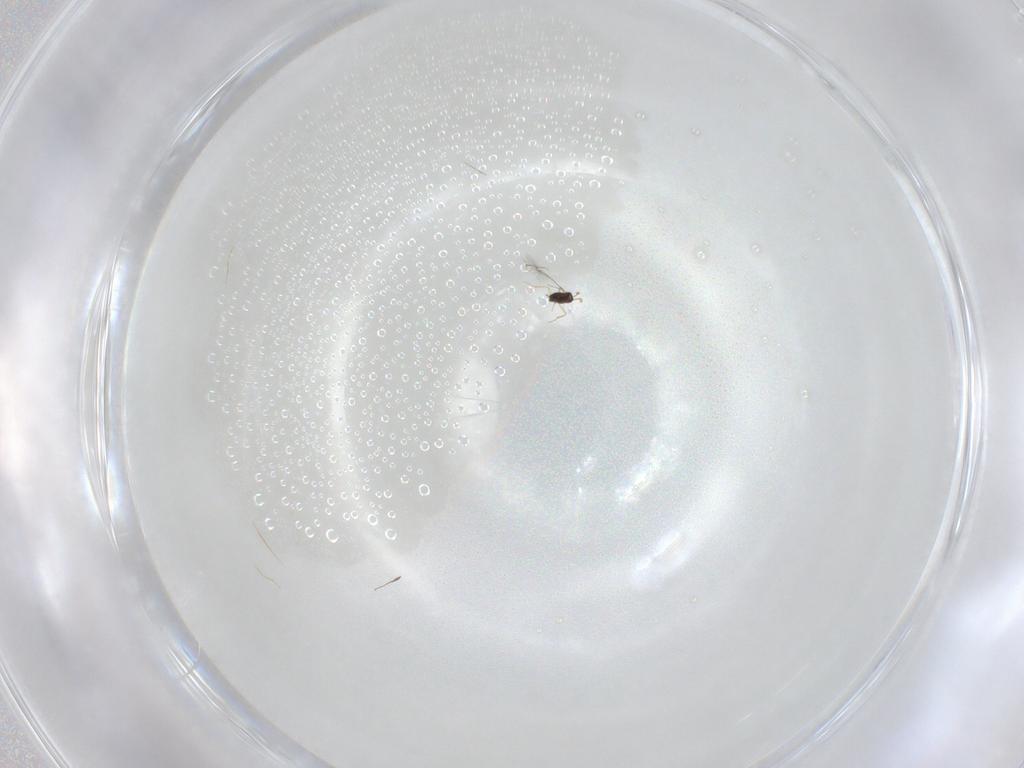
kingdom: Animalia
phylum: Arthropoda
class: Insecta
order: Hymenoptera
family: Mymaridae
